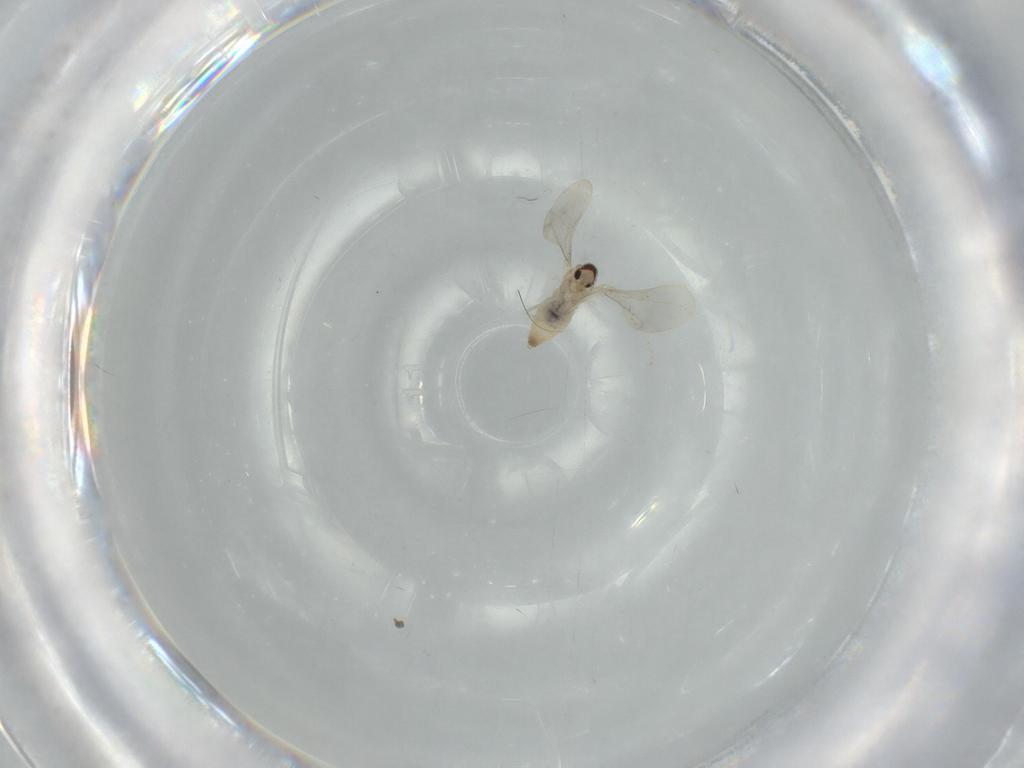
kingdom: Animalia
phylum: Arthropoda
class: Insecta
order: Diptera
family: Cecidomyiidae
